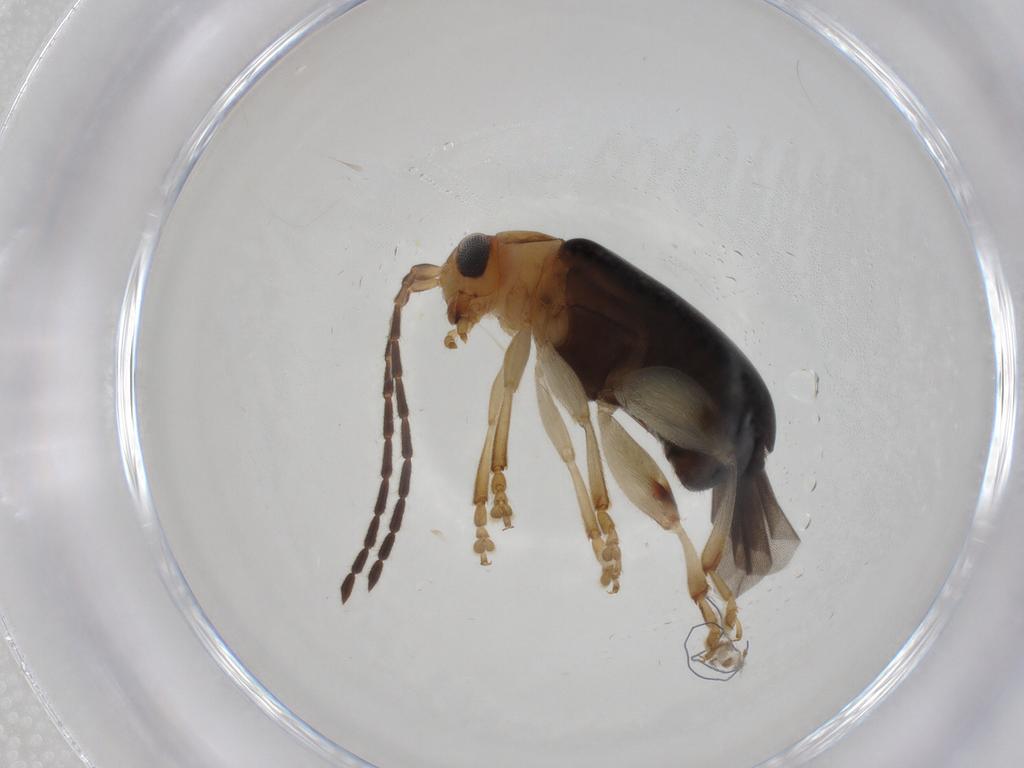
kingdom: Animalia
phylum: Arthropoda
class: Insecta
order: Coleoptera
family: Chrysomelidae
